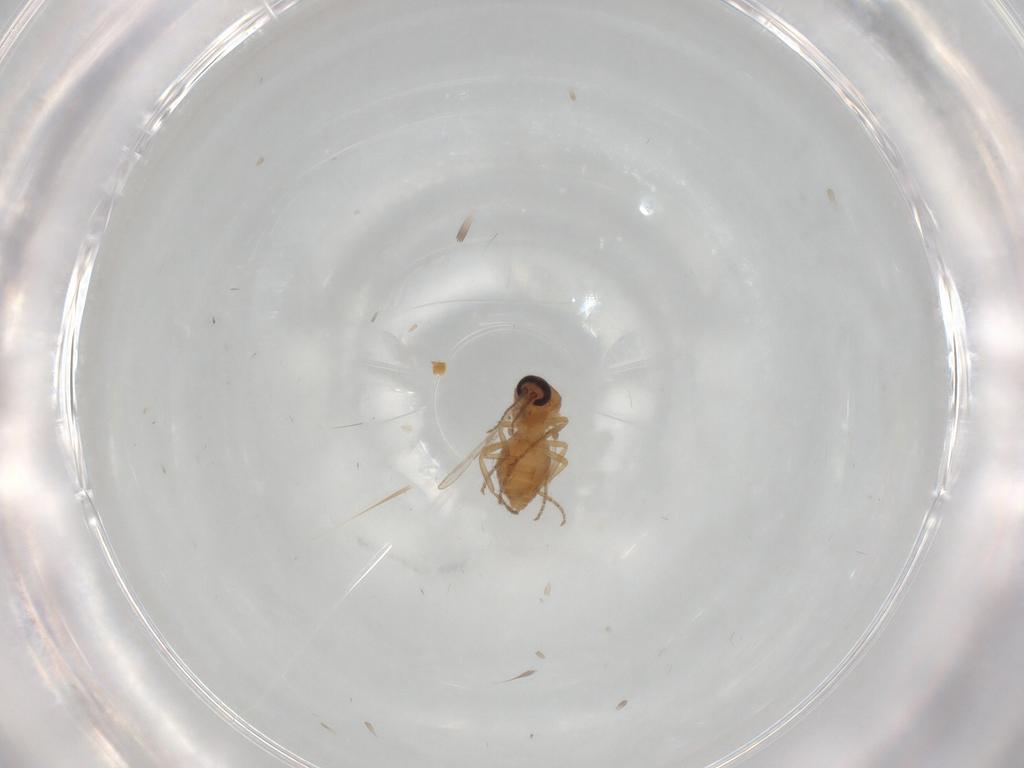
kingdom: Animalia
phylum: Arthropoda
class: Insecta
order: Diptera
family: Ceratopogonidae
